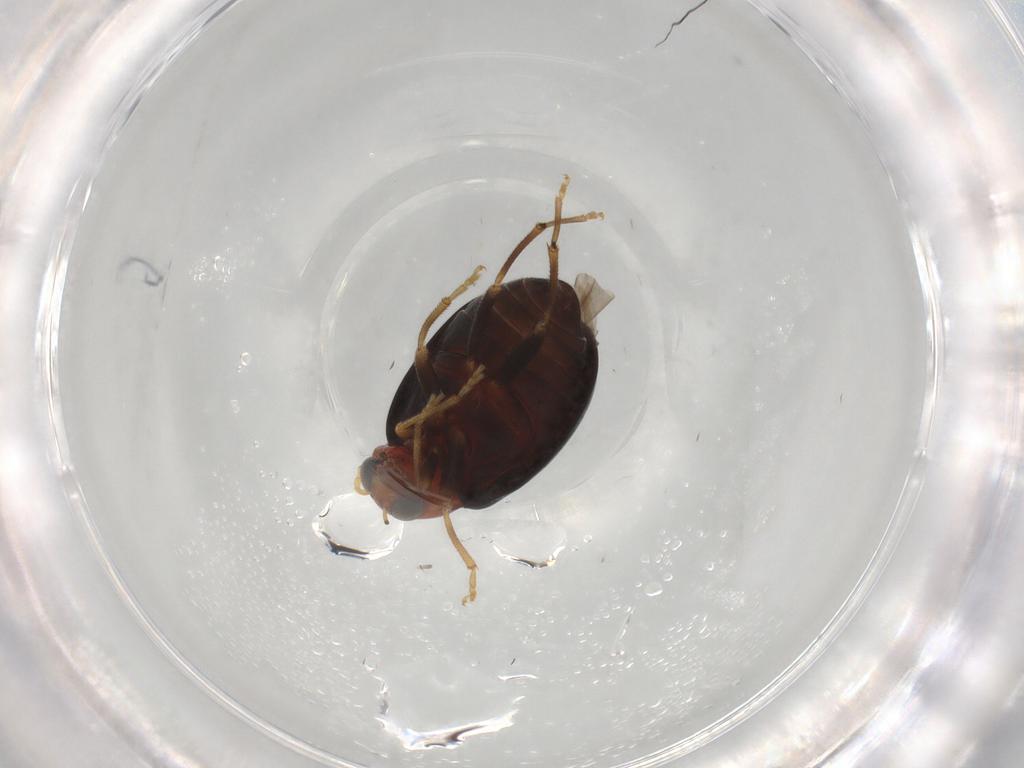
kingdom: Animalia
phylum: Arthropoda
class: Insecta
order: Coleoptera
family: Chrysomelidae
